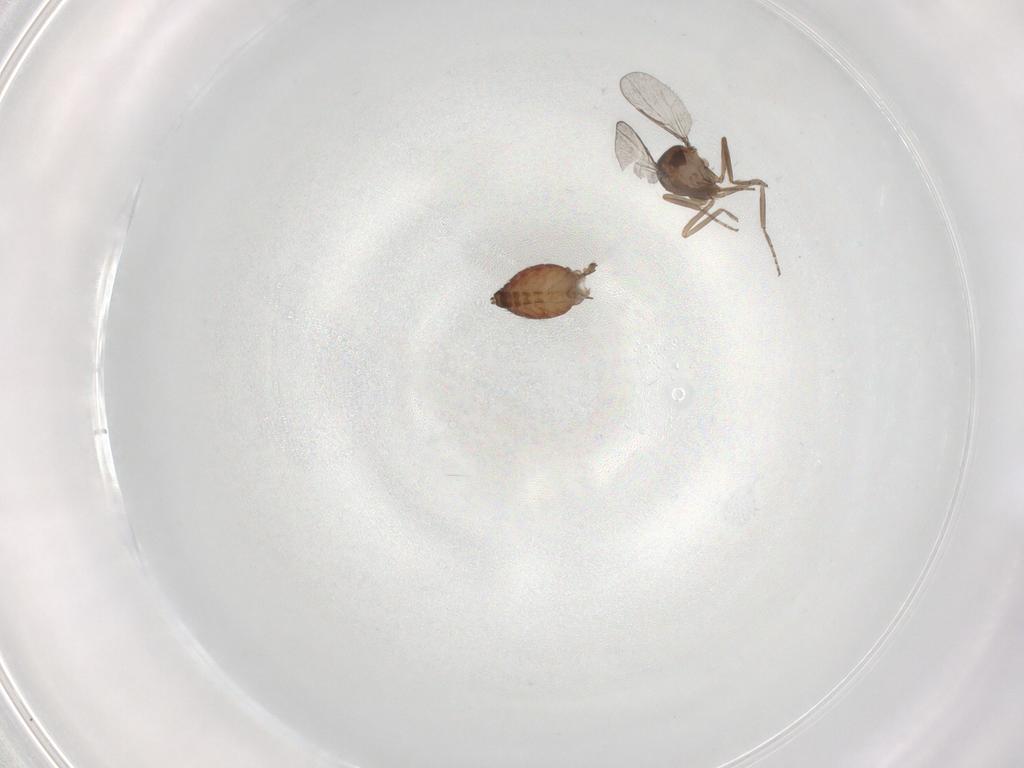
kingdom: Animalia
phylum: Arthropoda
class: Insecta
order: Diptera
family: Ceratopogonidae
